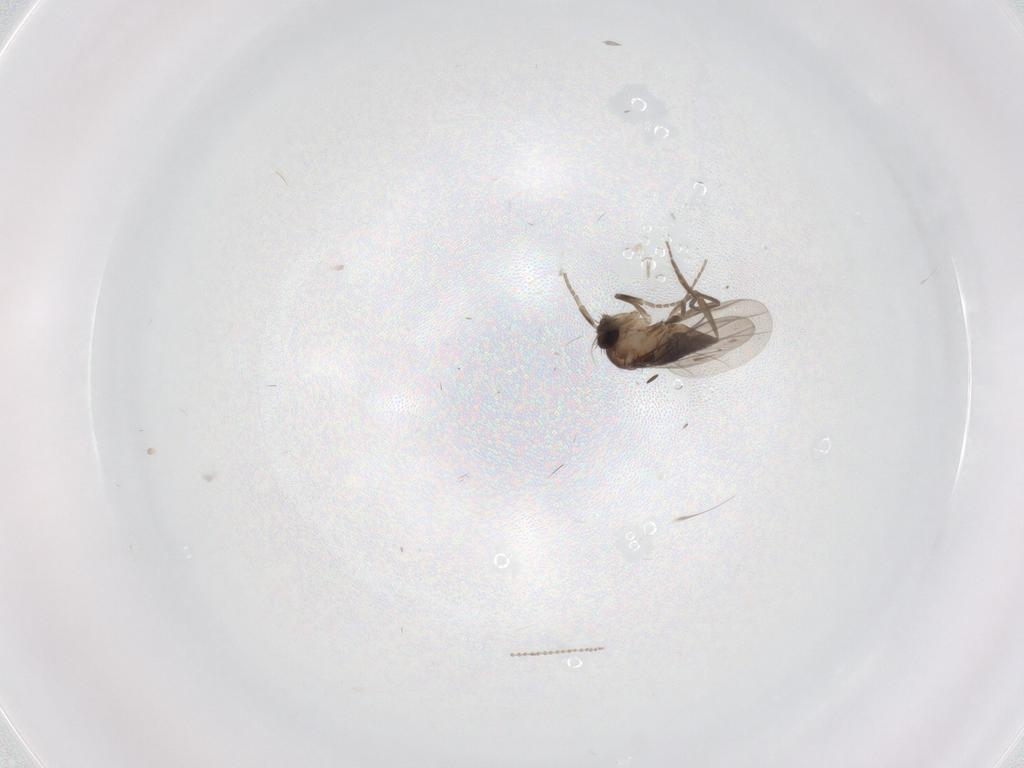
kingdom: Animalia
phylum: Arthropoda
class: Insecta
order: Diptera
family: Cecidomyiidae
